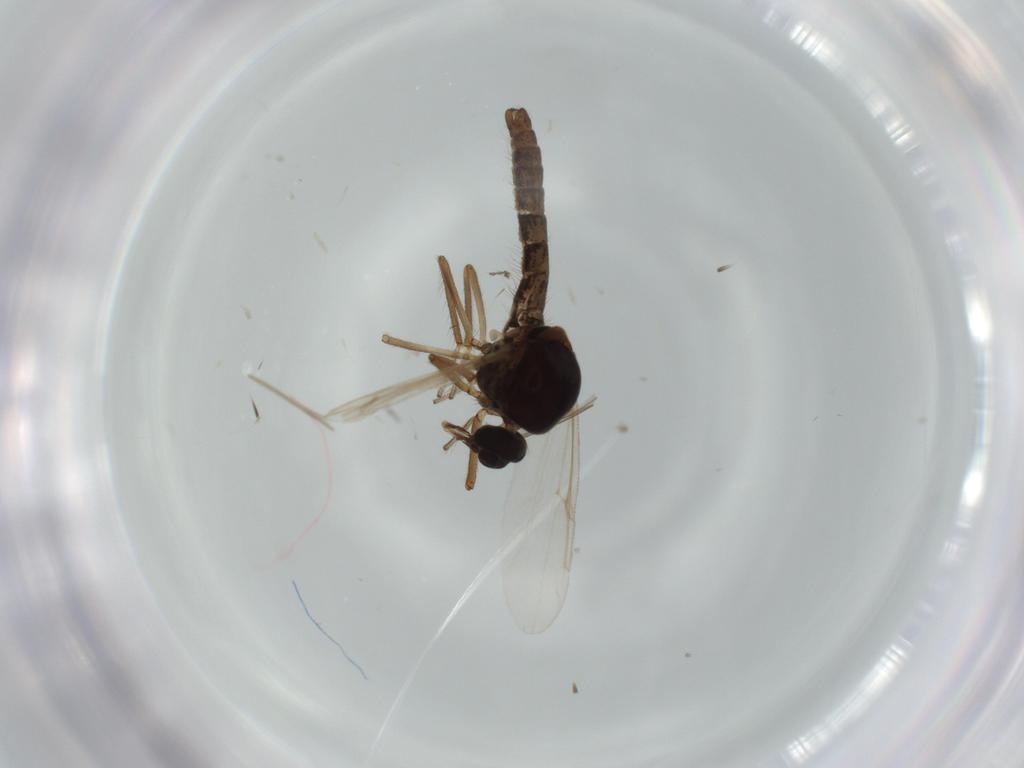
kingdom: Animalia
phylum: Arthropoda
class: Insecta
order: Diptera
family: Ceratopogonidae
